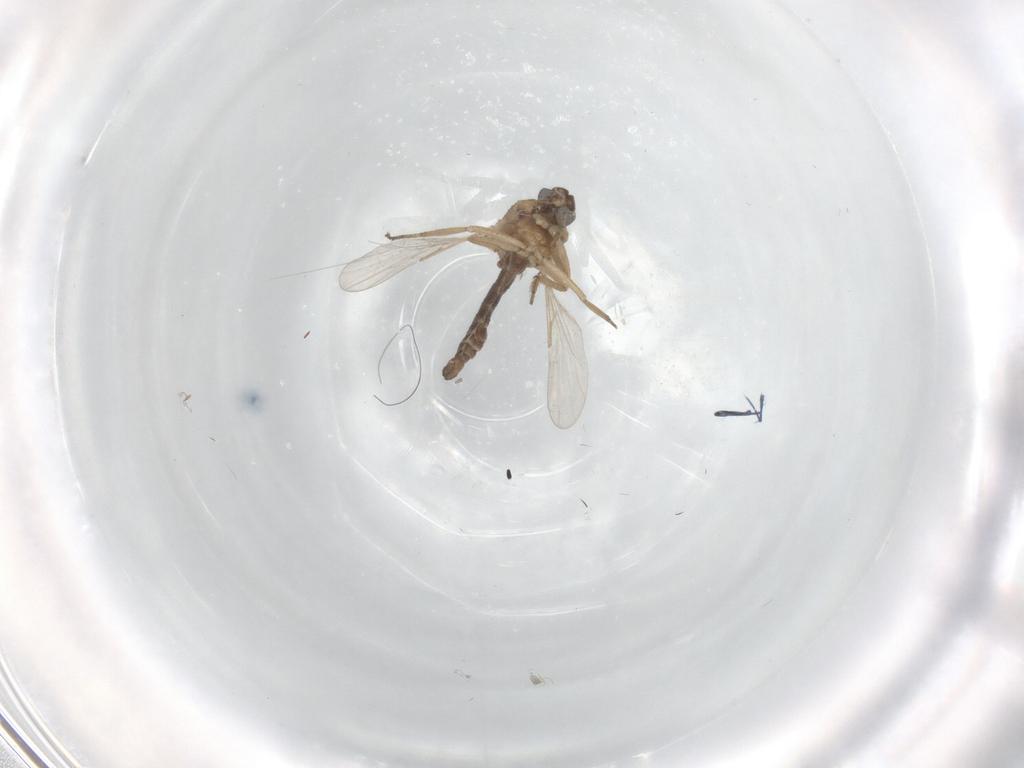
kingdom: Animalia
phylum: Arthropoda
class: Insecta
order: Diptera
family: Ceratopogonidae
